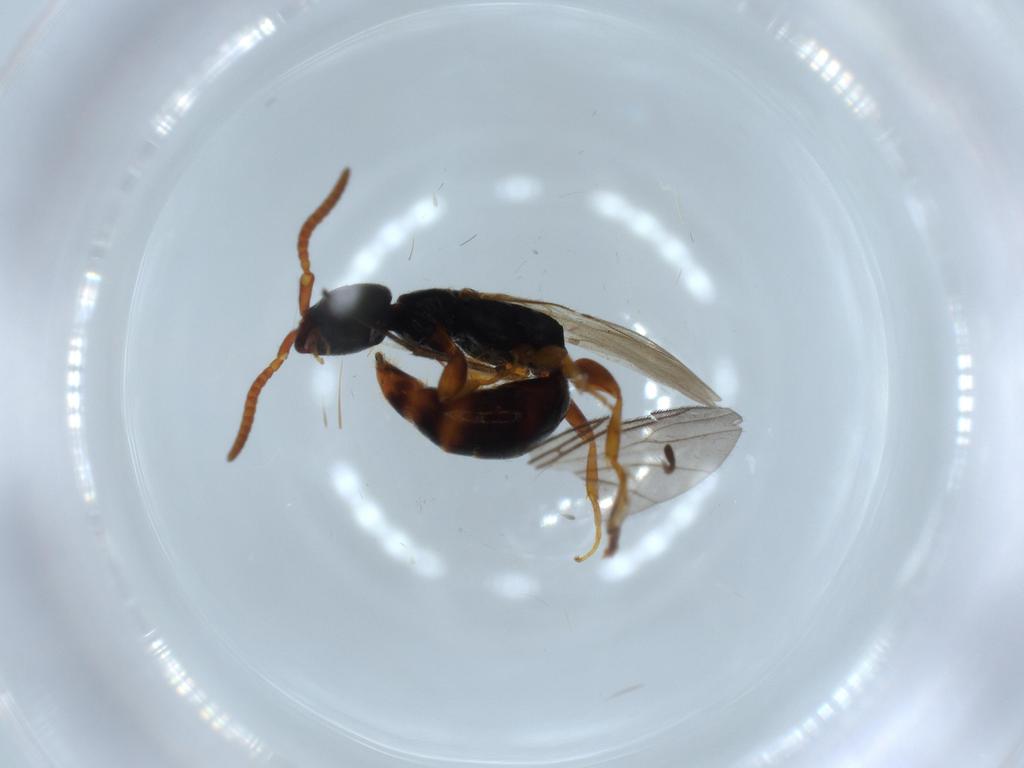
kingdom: Animalia
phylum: Arthropoda
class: Insecta
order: Hymenoptera
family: Bethylidae
